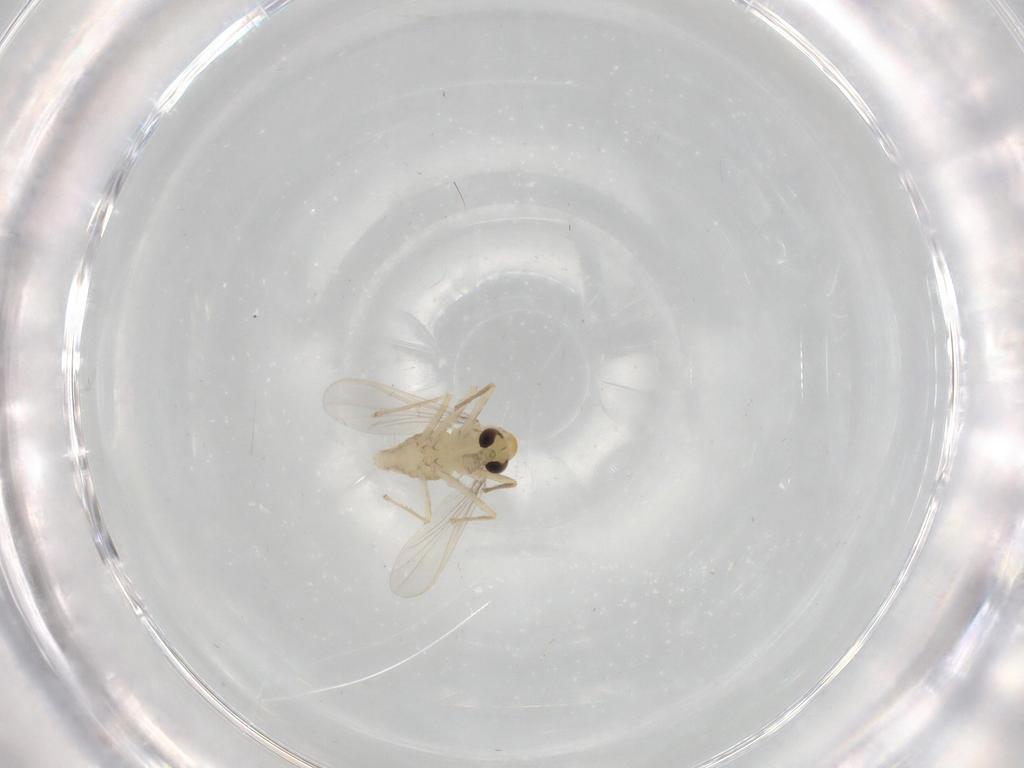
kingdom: Animalia
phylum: Arthropoda
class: Insecta
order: Diptera
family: Chironomidae
